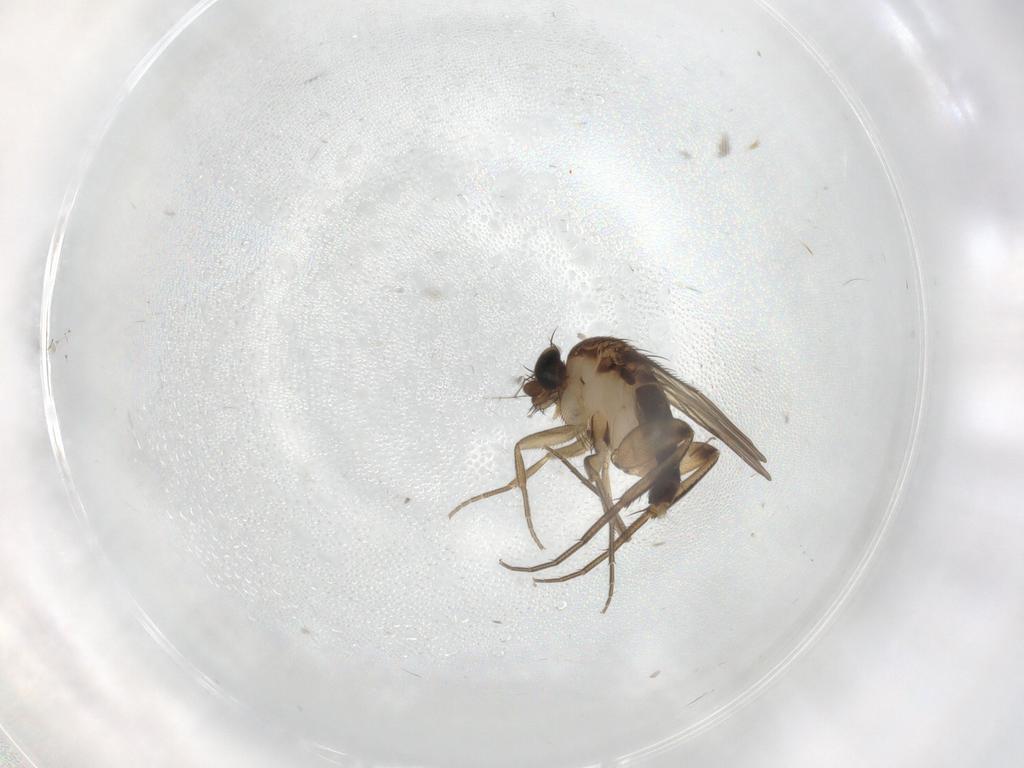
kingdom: Animalia
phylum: Arthropoda
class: Insecta
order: Diptera
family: Phoridae
